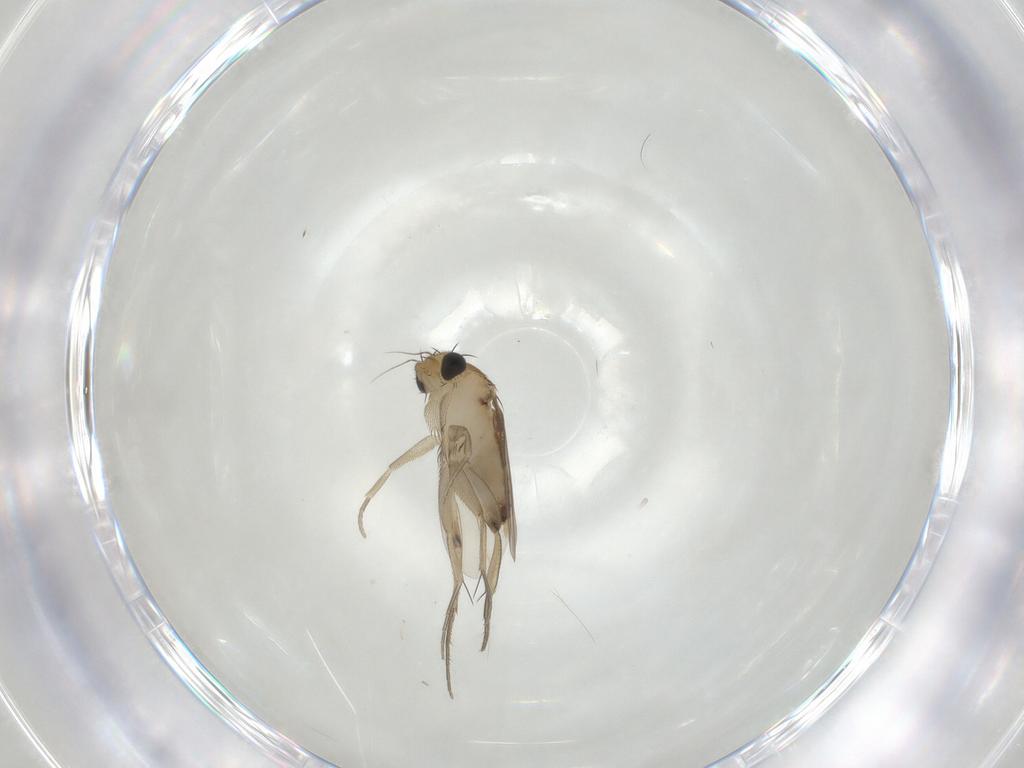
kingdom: Animalia
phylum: Arthropoda
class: Insecta
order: Diptera
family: Phoridae
